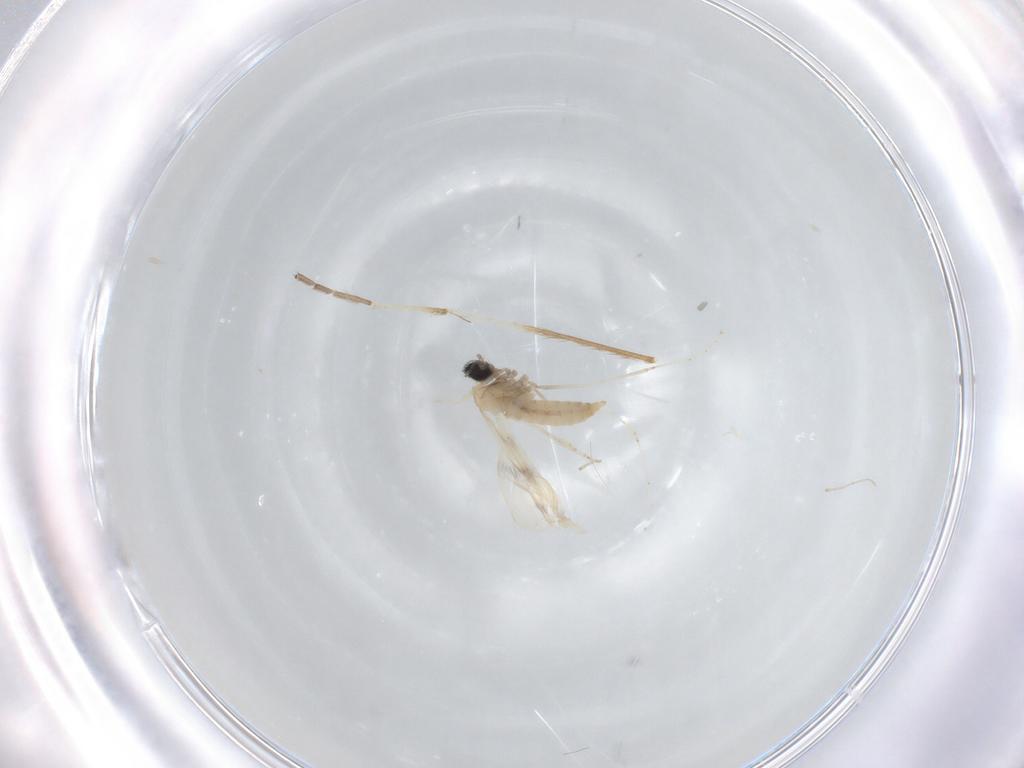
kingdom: Animalia
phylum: Arthropoda
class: Insecta
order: Diptera
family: Cecidomyiidae
